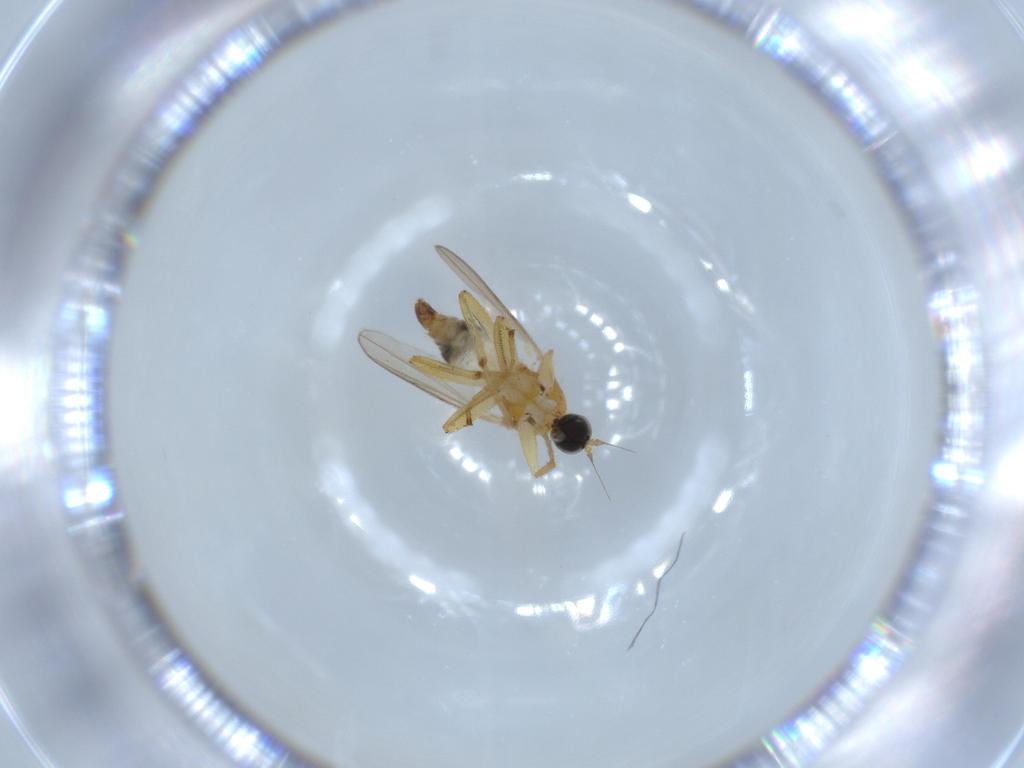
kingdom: Animalia
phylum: Arthropoda
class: Insecta
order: Diptera
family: Hybotidae
